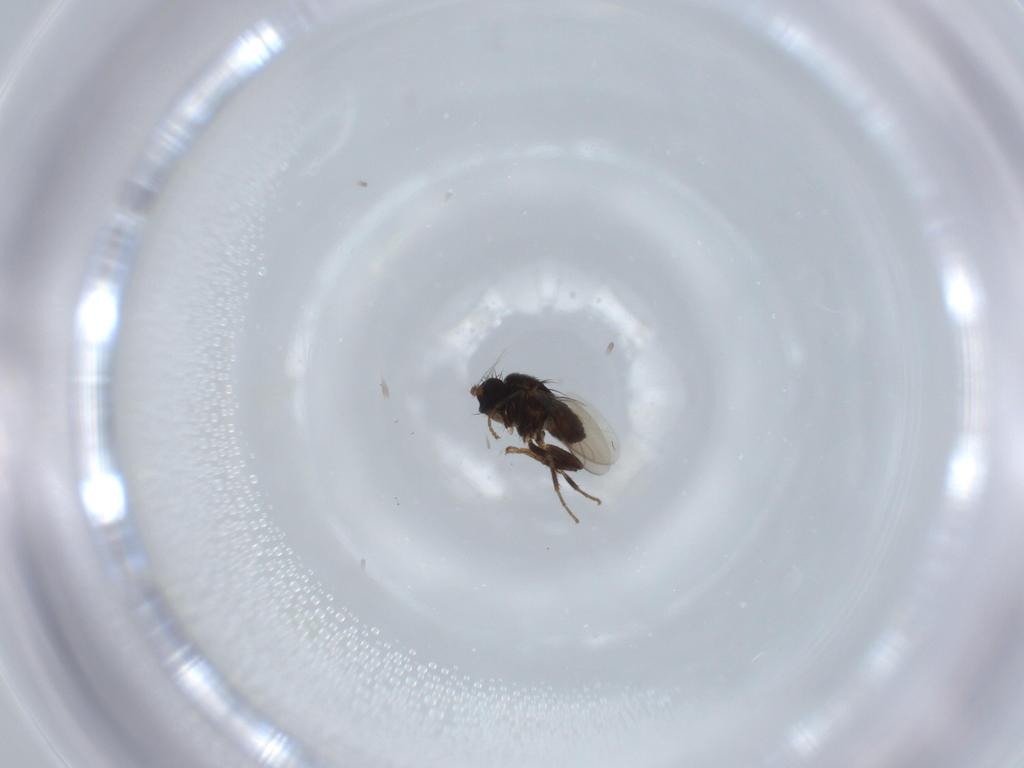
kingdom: Animalia
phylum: Arthropoda
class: Insecta
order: Diptera
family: Sphaeroceridae
